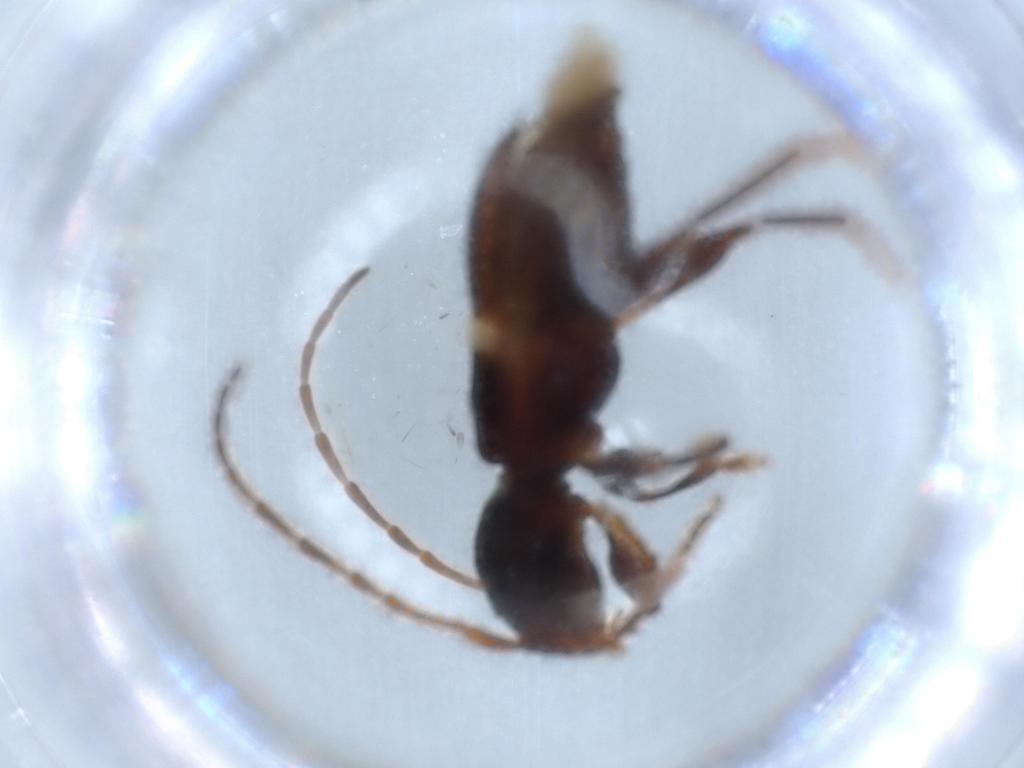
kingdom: Animalia
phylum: Arthropoda
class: Insecta
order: Coleoptera
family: Cerambycidae
